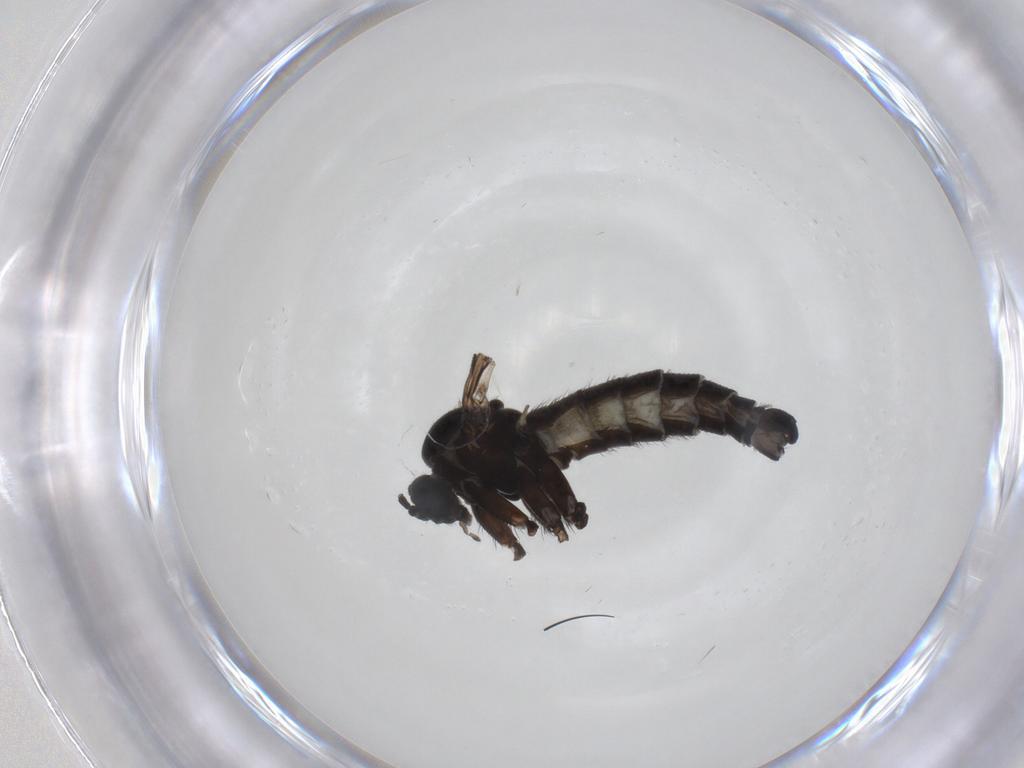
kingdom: Animalia
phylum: Arthropoda
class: Insecta
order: Diptera
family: Sciaridae
